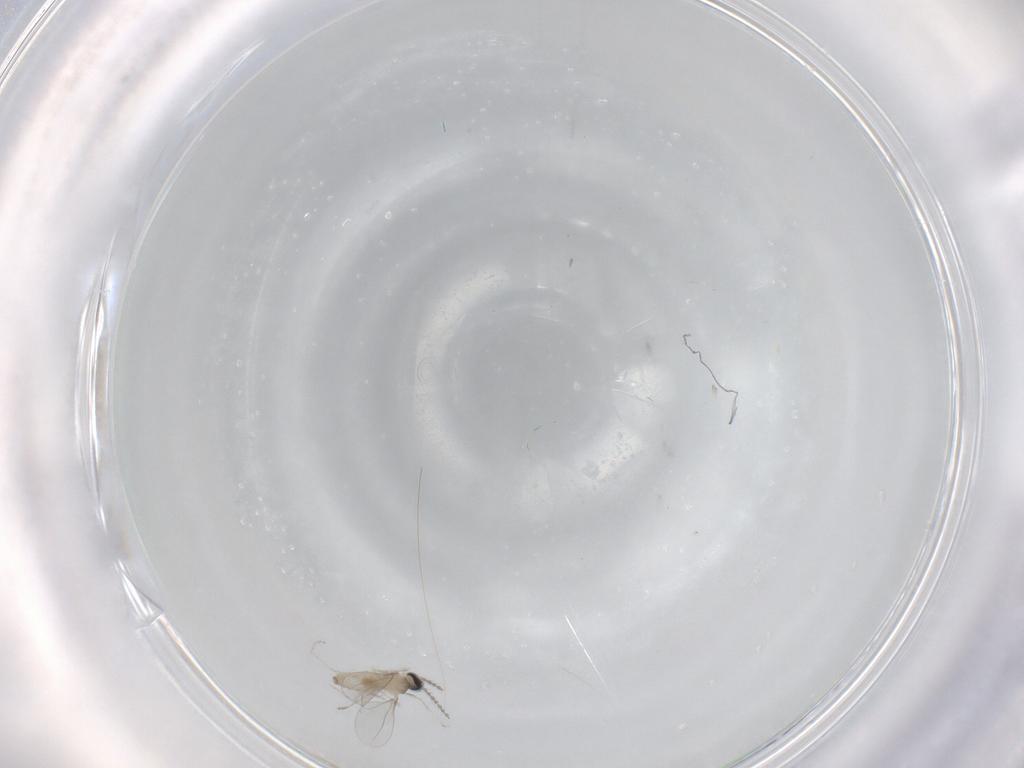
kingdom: Animalia
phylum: Arthropoda
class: Insecta
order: Diptera
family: Cecidomyiidae
